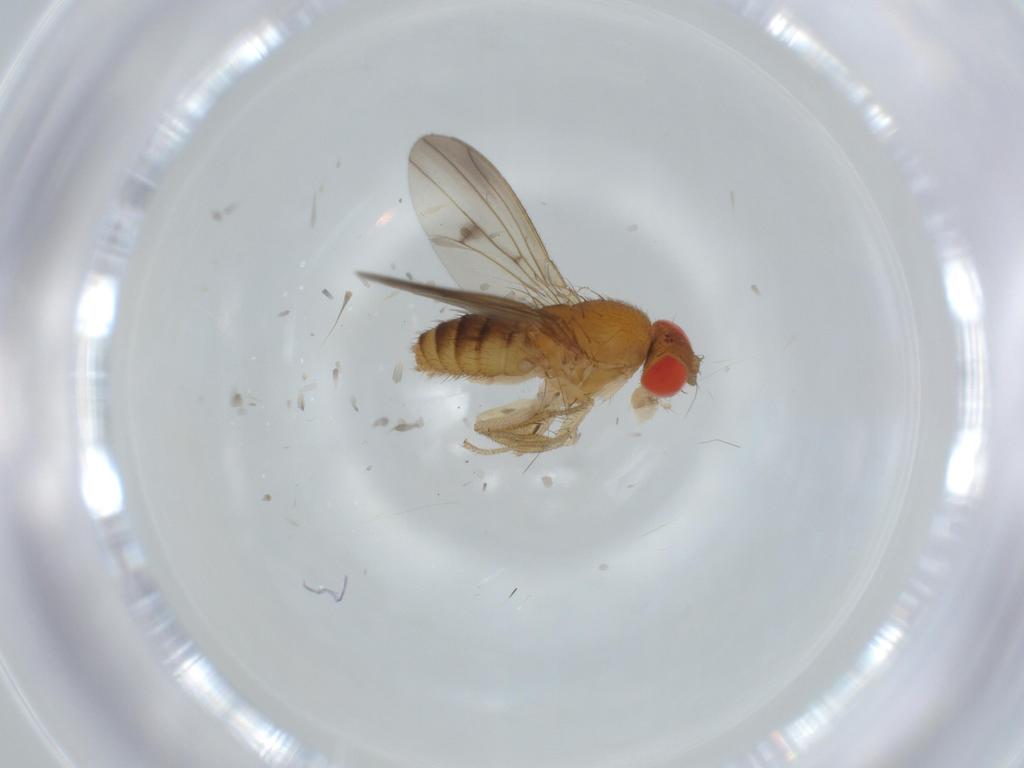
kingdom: Animalia
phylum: Arthropoda
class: Insecta
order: Diptera
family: Drosophilidae
